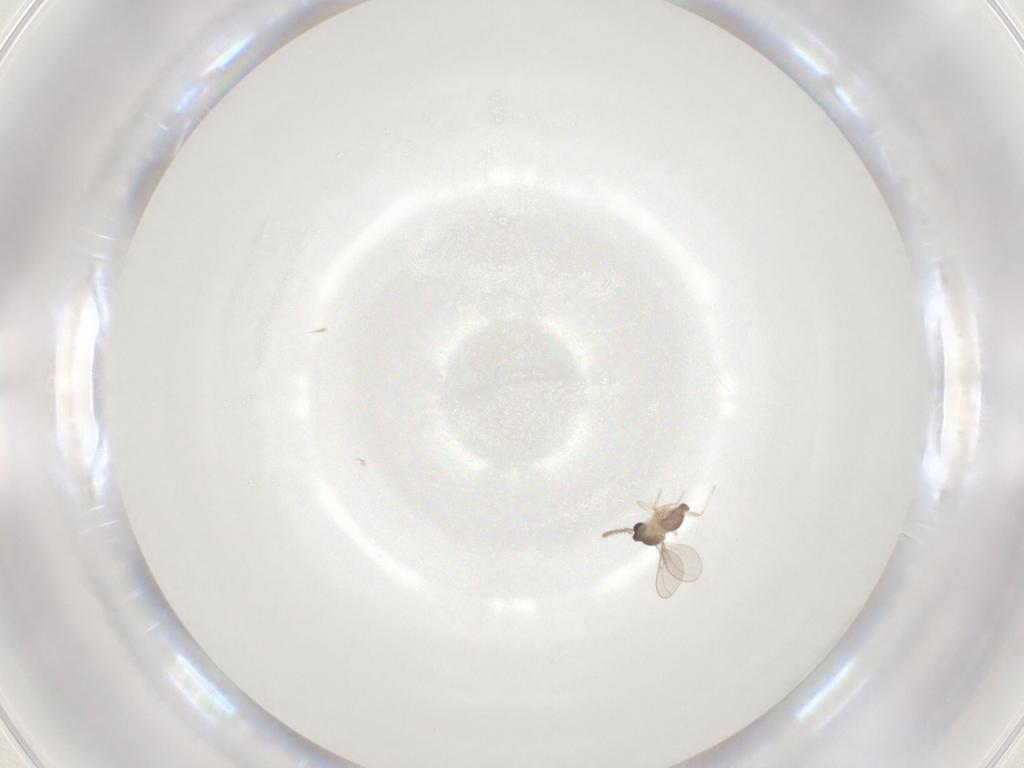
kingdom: Animalia
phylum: Arthropoda
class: Insecta
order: Diptera
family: Cecidomyiidae
